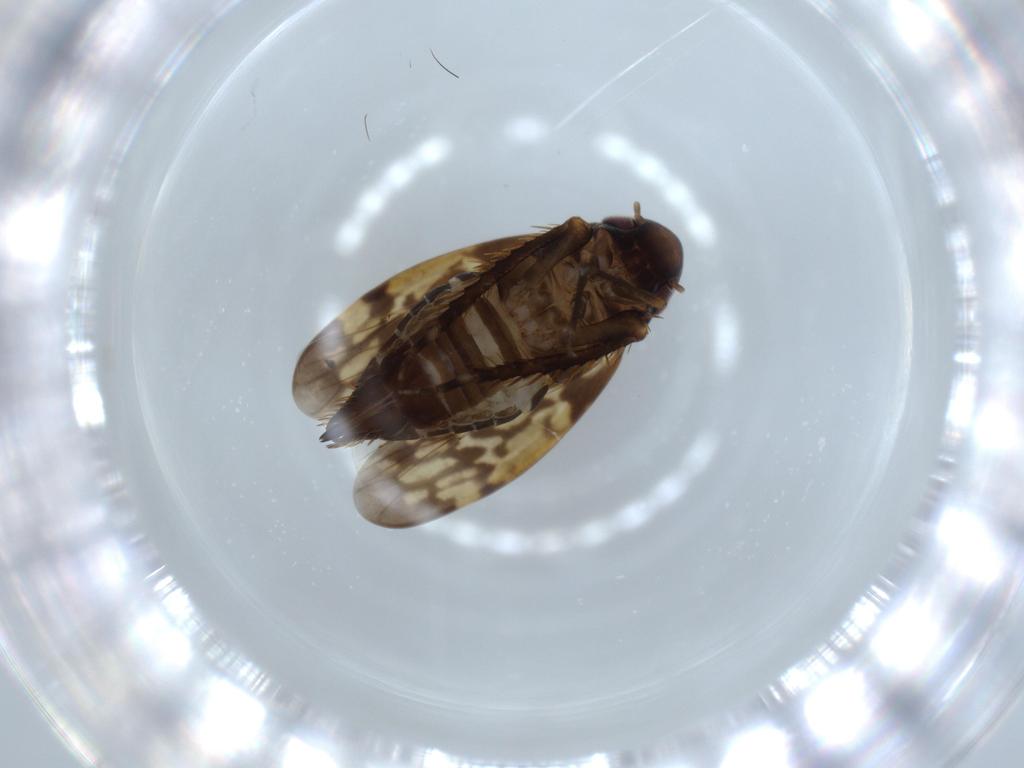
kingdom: Animalia
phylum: Arthropoda
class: Insecta
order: Hemiptera
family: Cicadellidae
